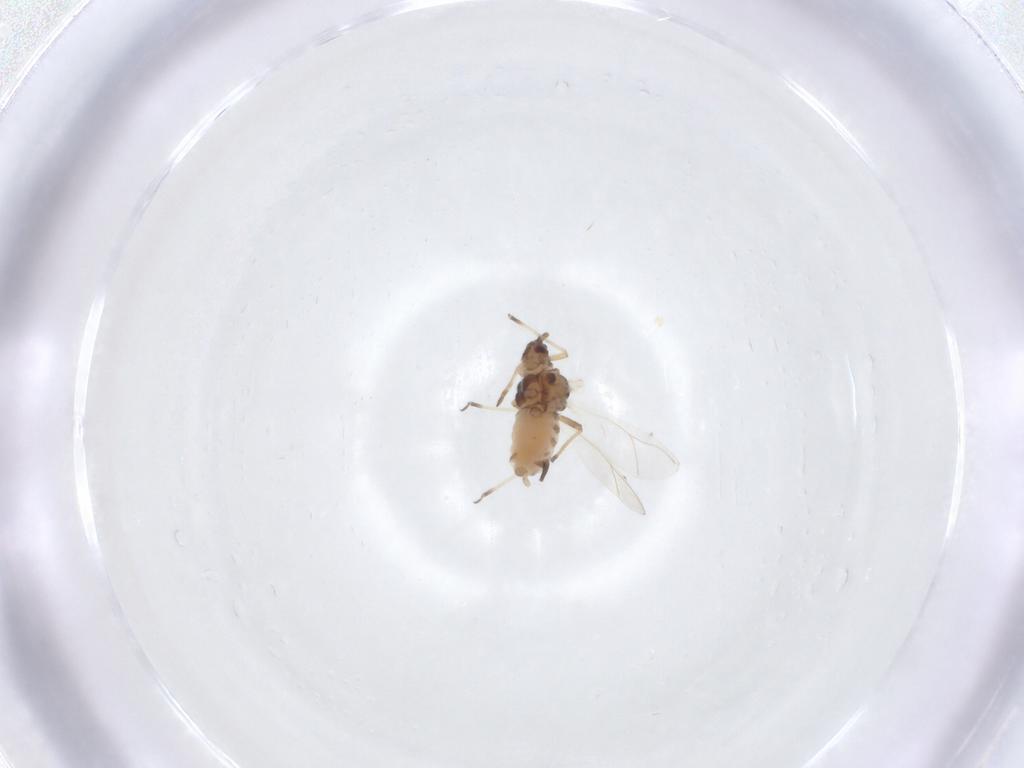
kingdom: Animalia
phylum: Arthropoda
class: Insecta
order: Hemiptera
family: Aphididae
